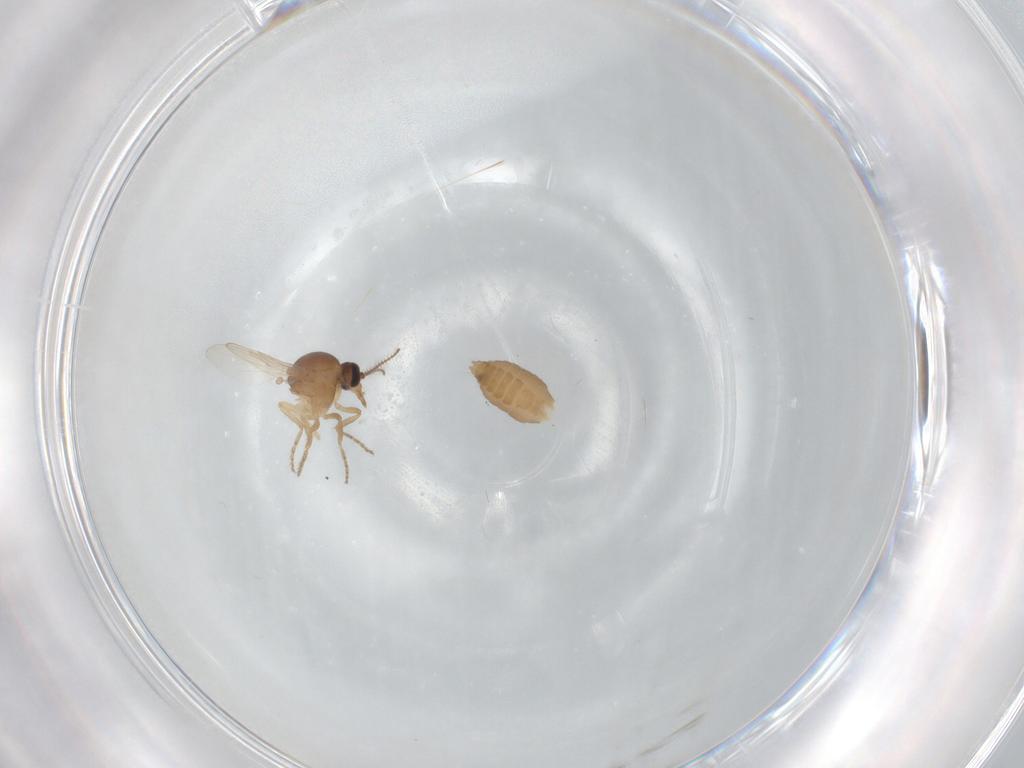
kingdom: Animalia
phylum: Arthropoda
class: Insecta
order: Diptera
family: Ceratopogonidae
